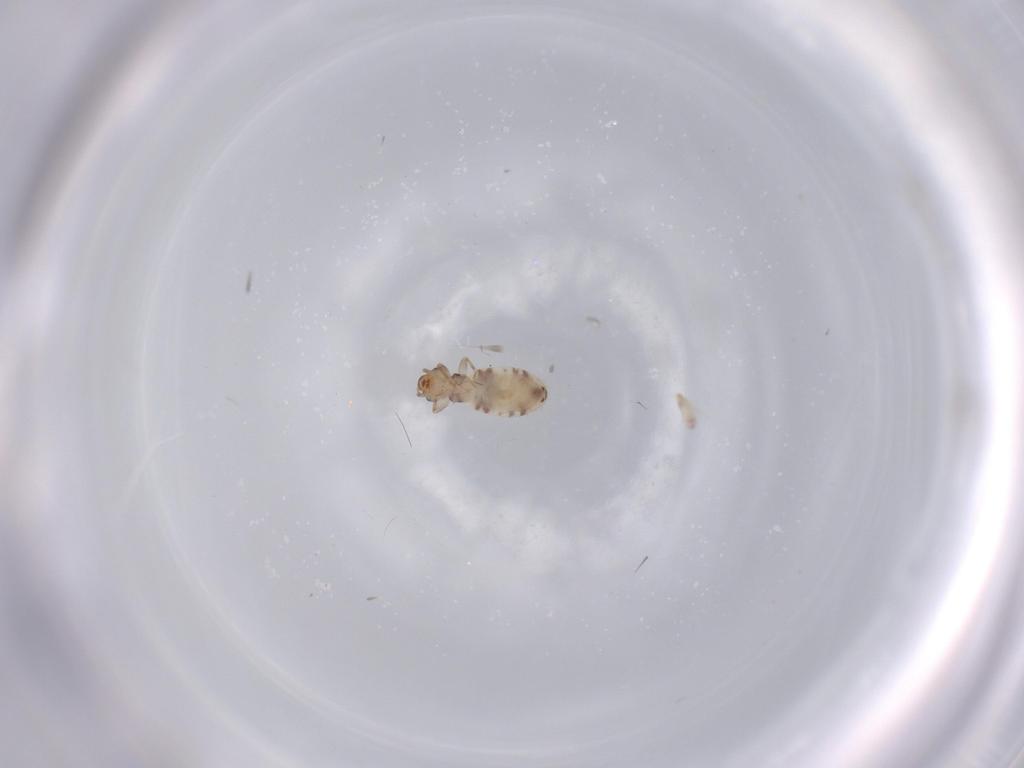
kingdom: Animalia
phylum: Arthropoda
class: Insecta
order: Psocodea
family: Liposcelididae
